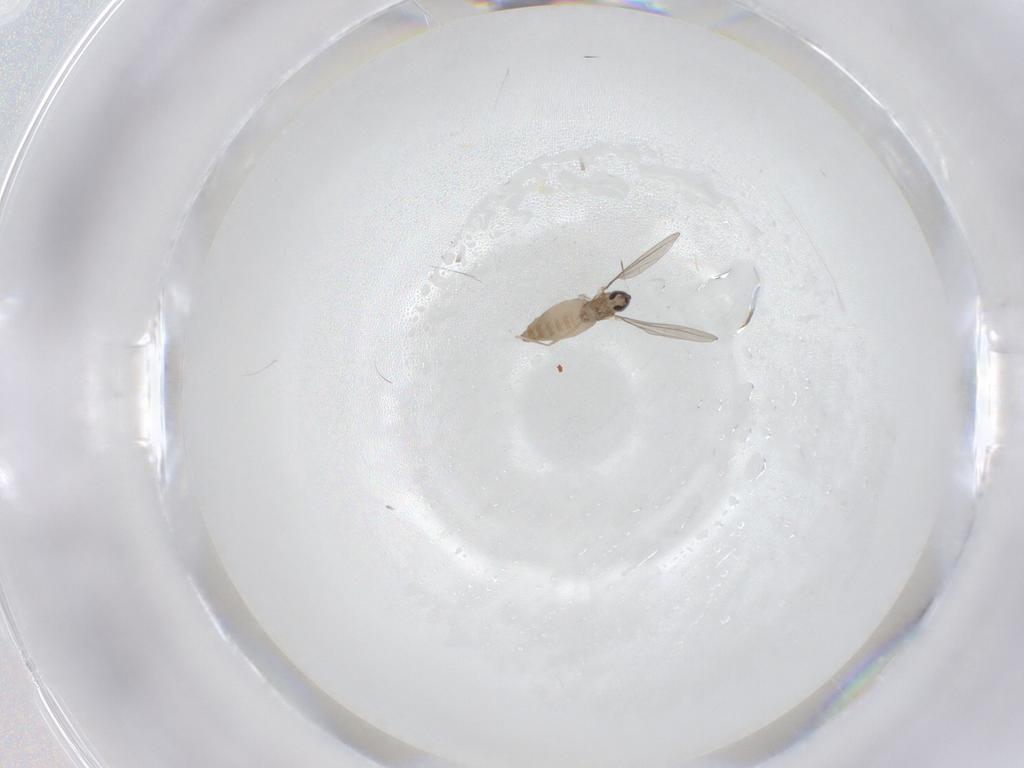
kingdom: Animalia
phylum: Arthropoda
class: Insecta
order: Diptera
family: Cecidomyiidae
